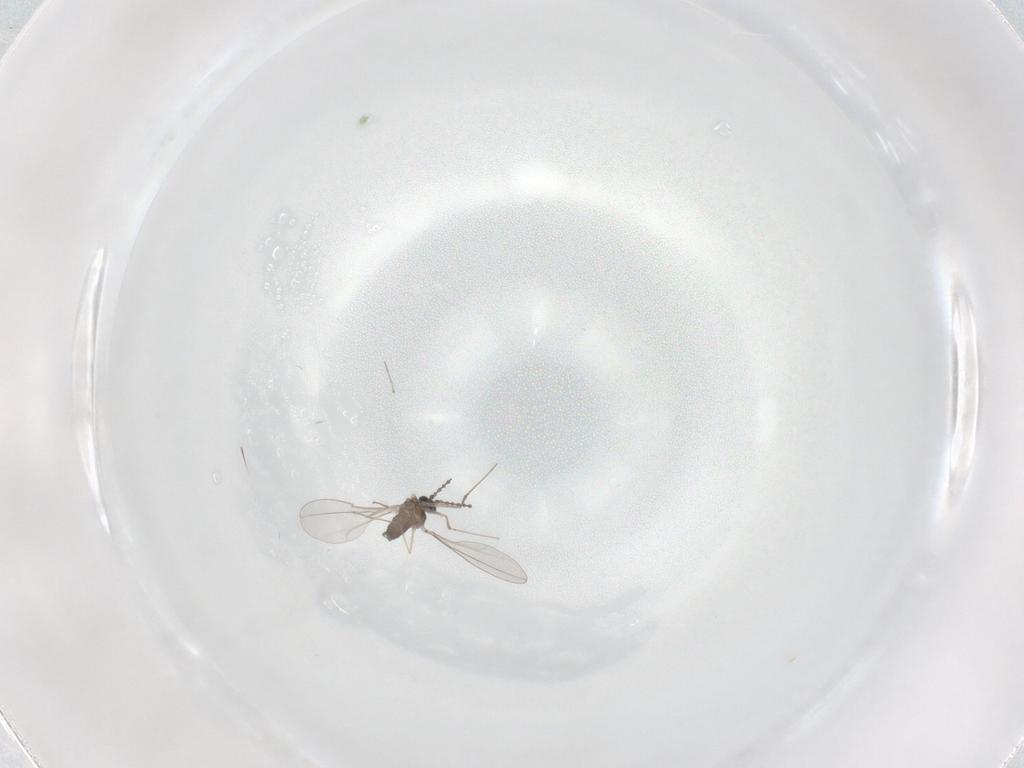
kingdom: Animalia
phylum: Arthropoda
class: Insecta
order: Diptera
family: Cecidomyiidae
